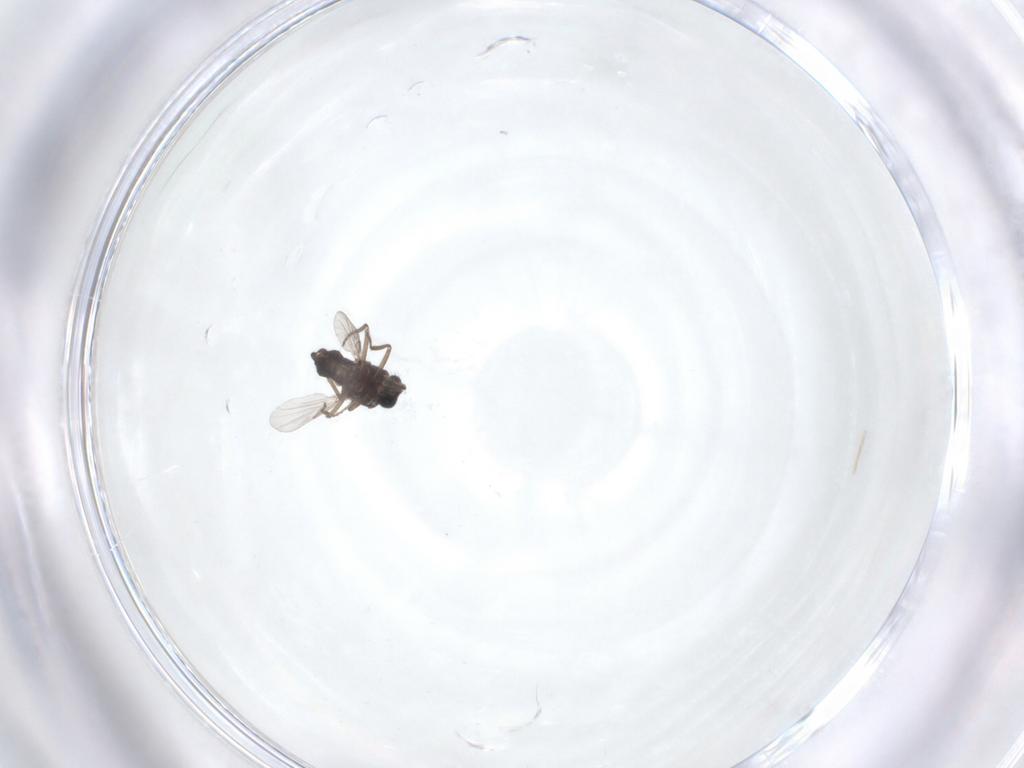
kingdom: Animalia
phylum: Arthropoda
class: Insecta
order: Diptera
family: Ceratopogonidae
